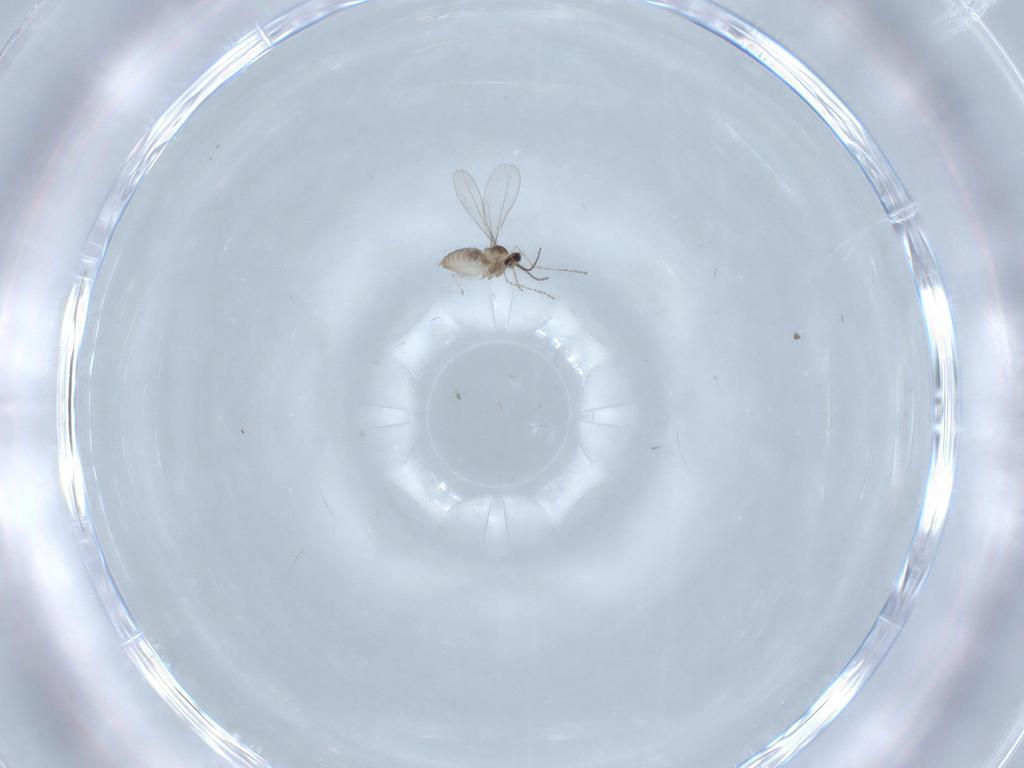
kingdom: Animalia
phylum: Arthropoda
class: Insecta
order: Diptera
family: Cecidomyiidae
